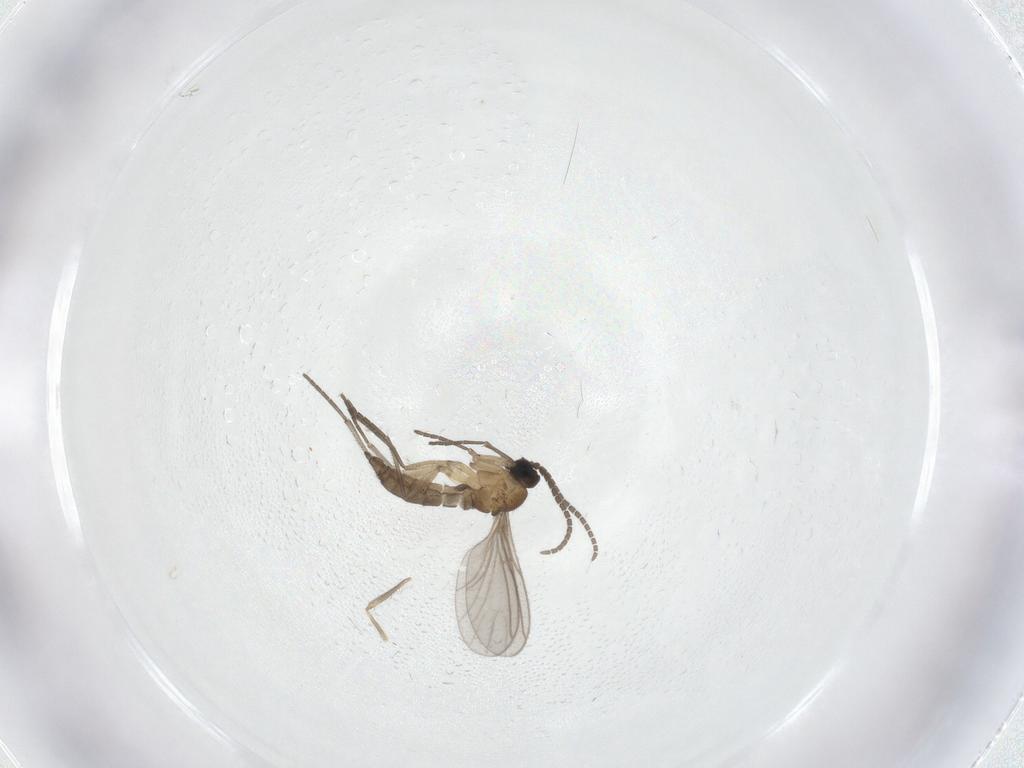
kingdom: Animalia
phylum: Arthropoda
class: Insecta
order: Diptera
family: Chironomidae
